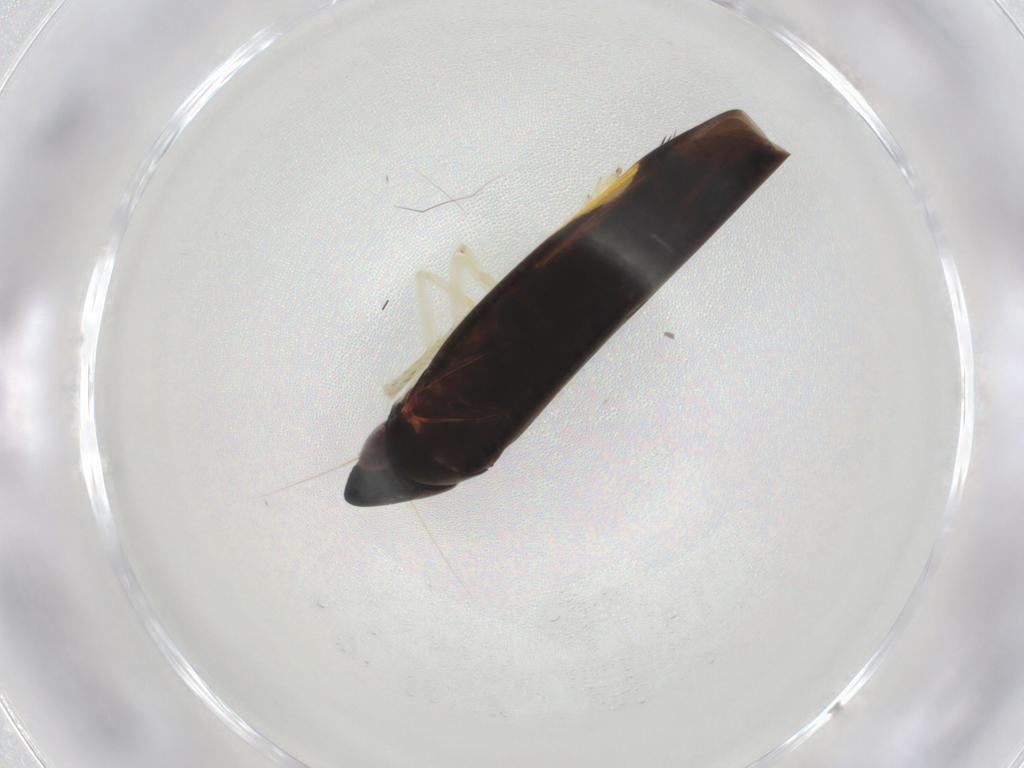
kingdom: Animalia
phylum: Arthropoda
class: Insecta
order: Hemiptera
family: Cicadellidae
